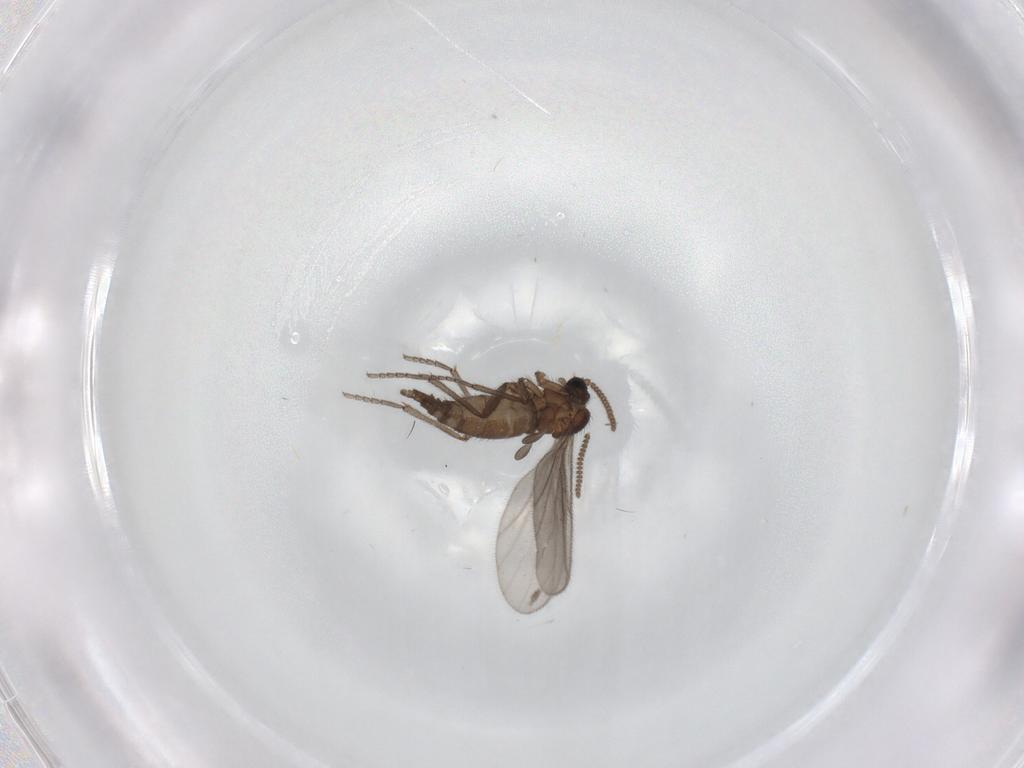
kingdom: Animalia
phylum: Arthropoda
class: Insecta
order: Diptera
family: Sciaridae
